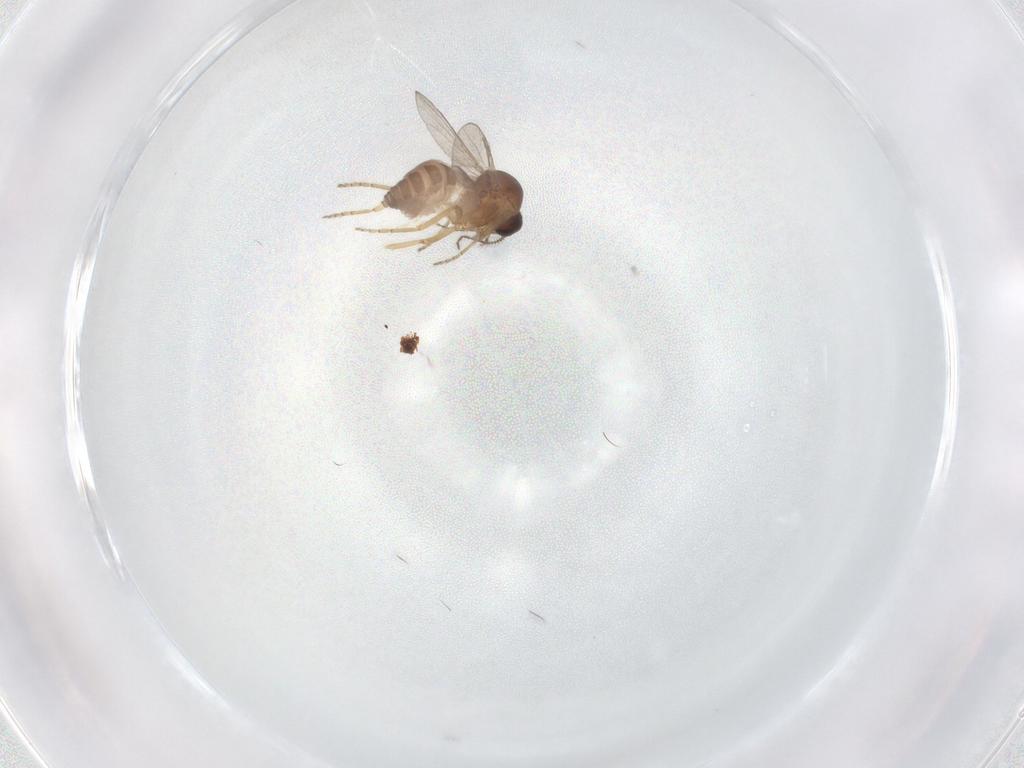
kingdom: Animalia
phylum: Arthropoda
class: Insecta
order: Diptera
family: Ceratopogonidae
